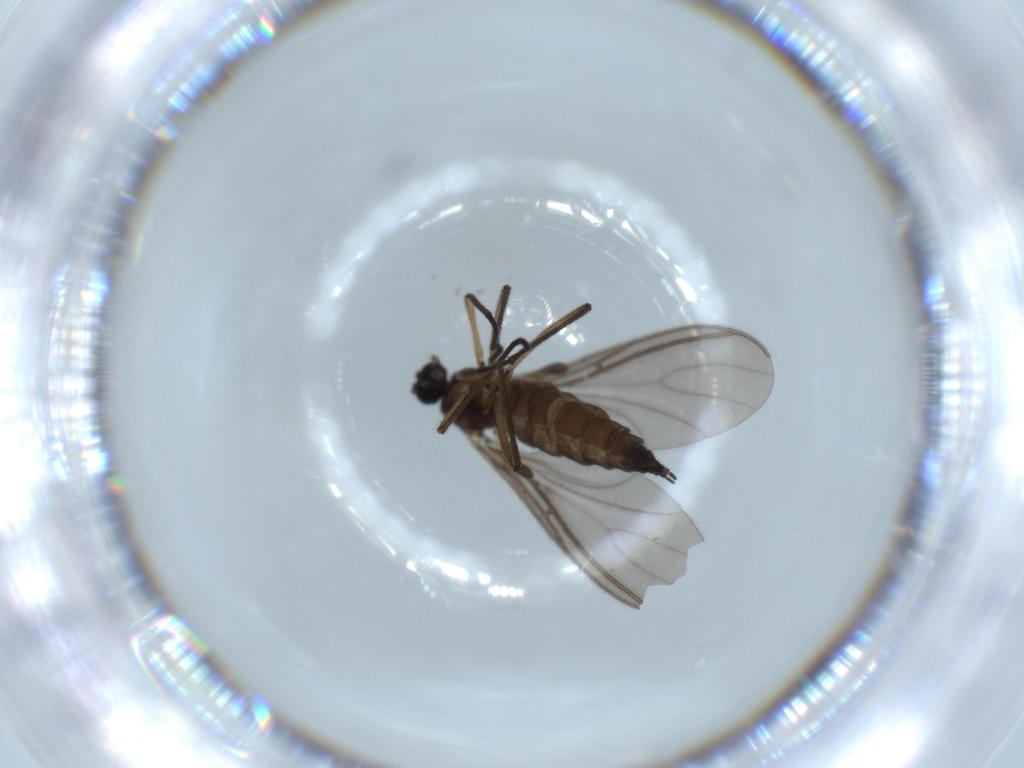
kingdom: Animalia
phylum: Arthropoda
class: Insecta
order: Diptera
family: Sciaridae
